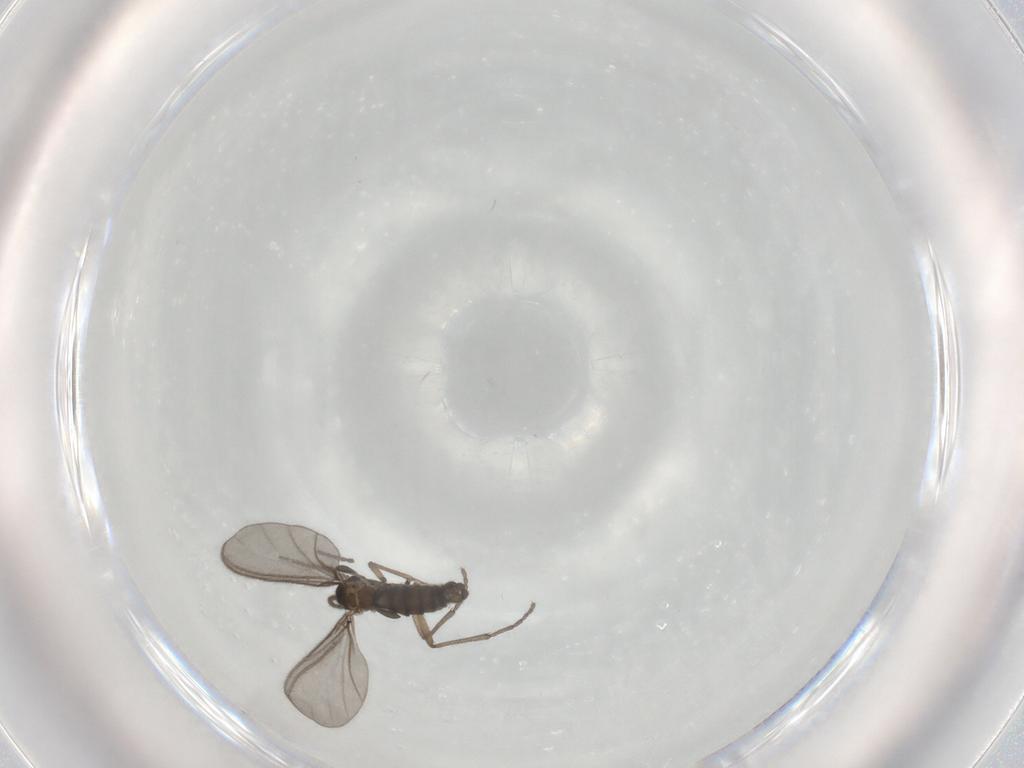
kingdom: Animalia
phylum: Arthropoda
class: Insecta
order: Diptera
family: Sciaridae
